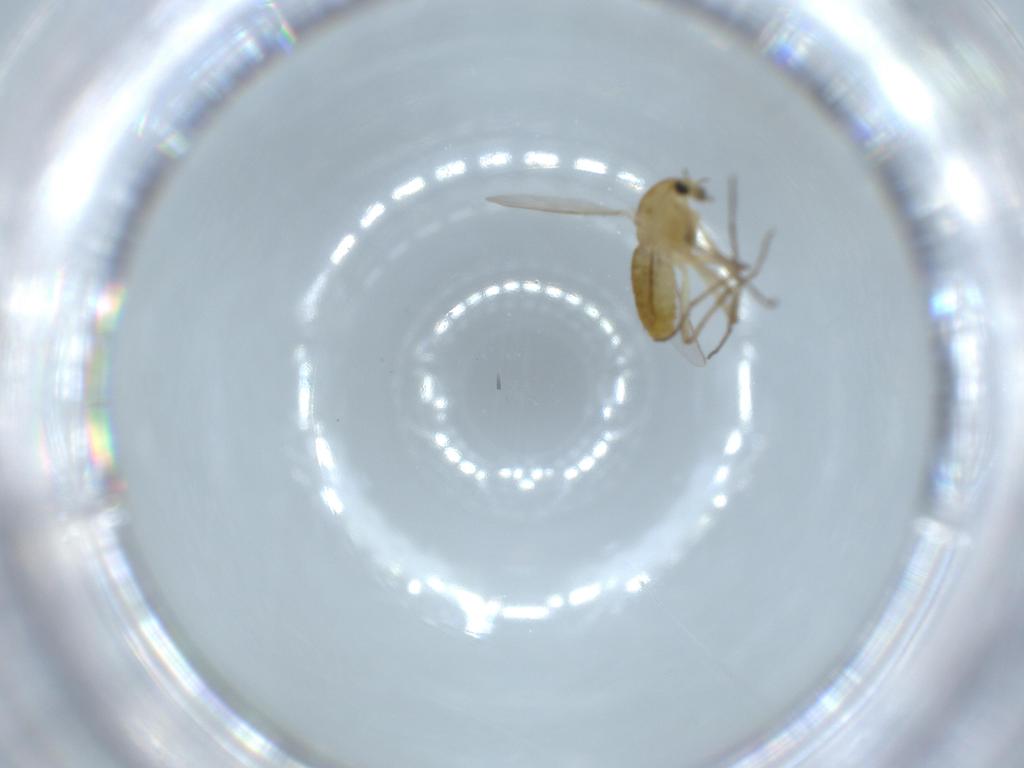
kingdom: Animalia
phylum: Arthropoda
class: Insecta
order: Diptera
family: Chironomidae
